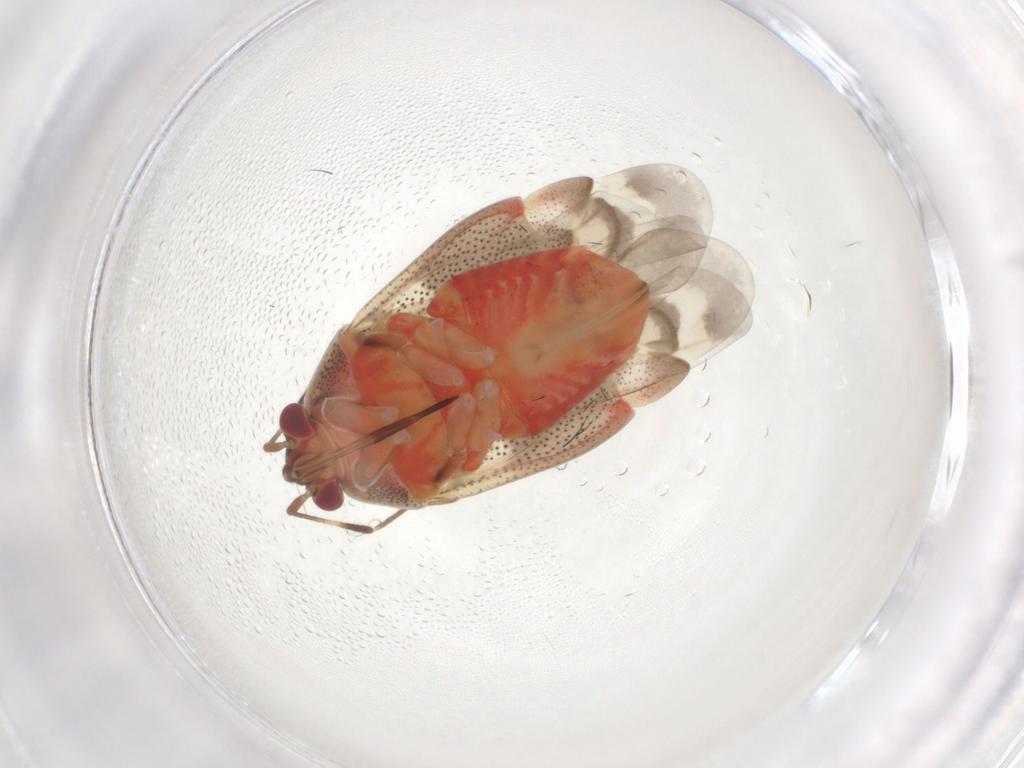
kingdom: Animalia
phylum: Arthropoda
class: Insecta
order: Hemiptera
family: Miridae
